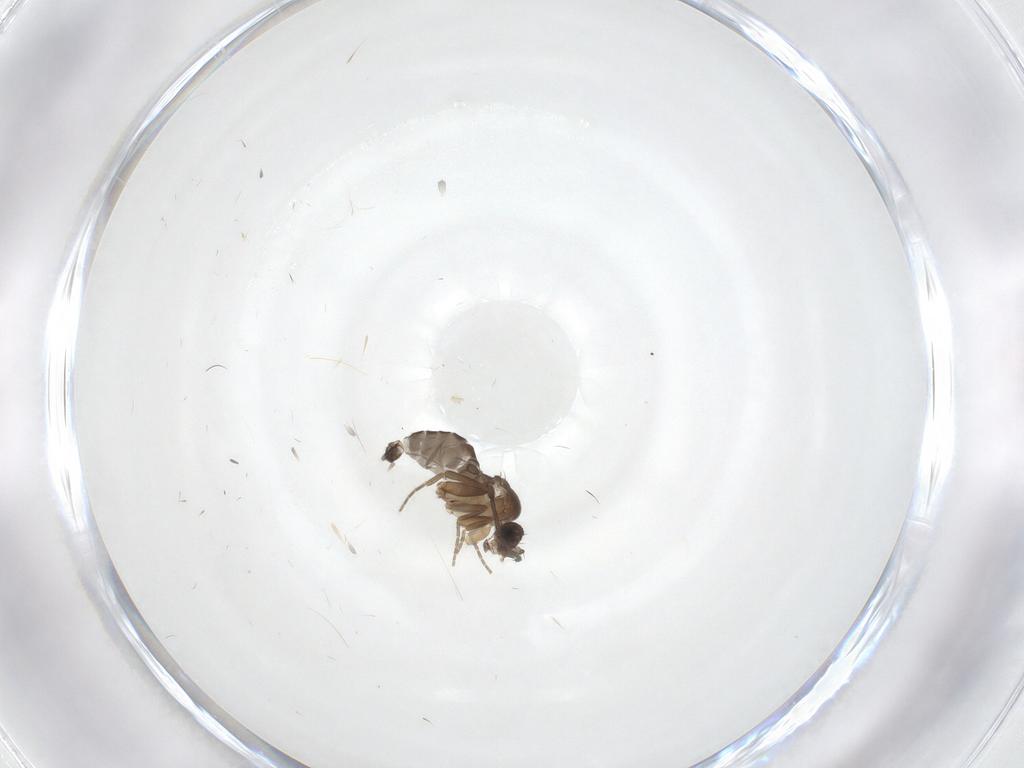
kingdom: Animalia
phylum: Arthropoda
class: Insecta
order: Diptera
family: Phoridae
